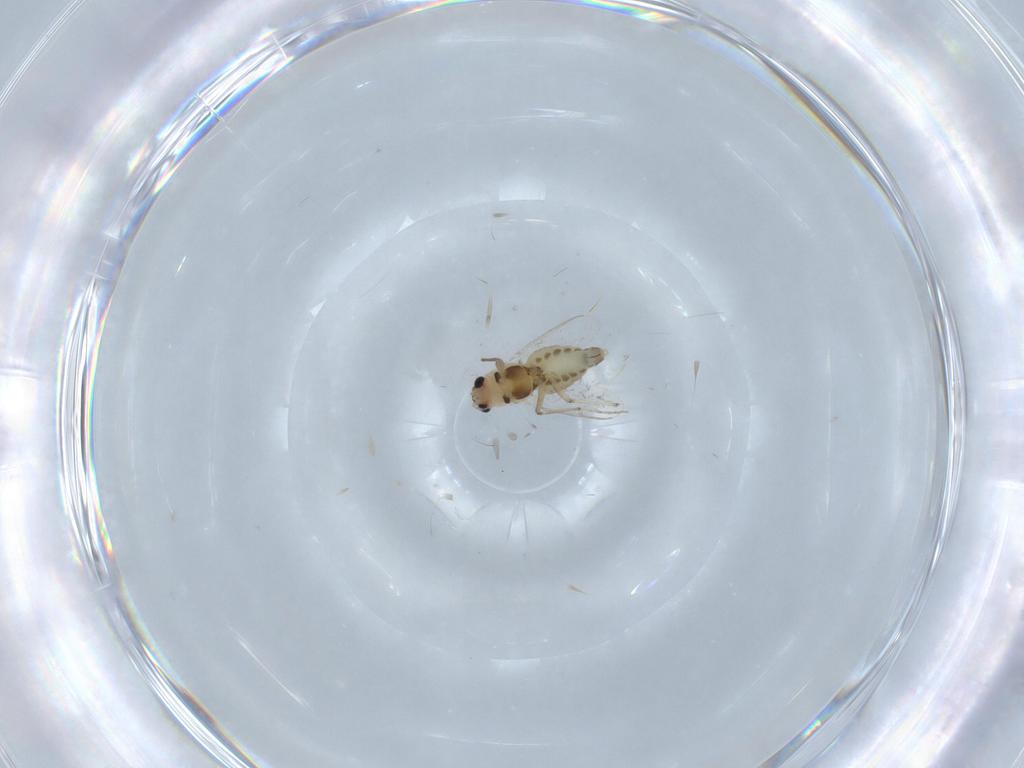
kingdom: Animalia
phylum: Arthropoda
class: Insecta
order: Diptera
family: Chironomidae
